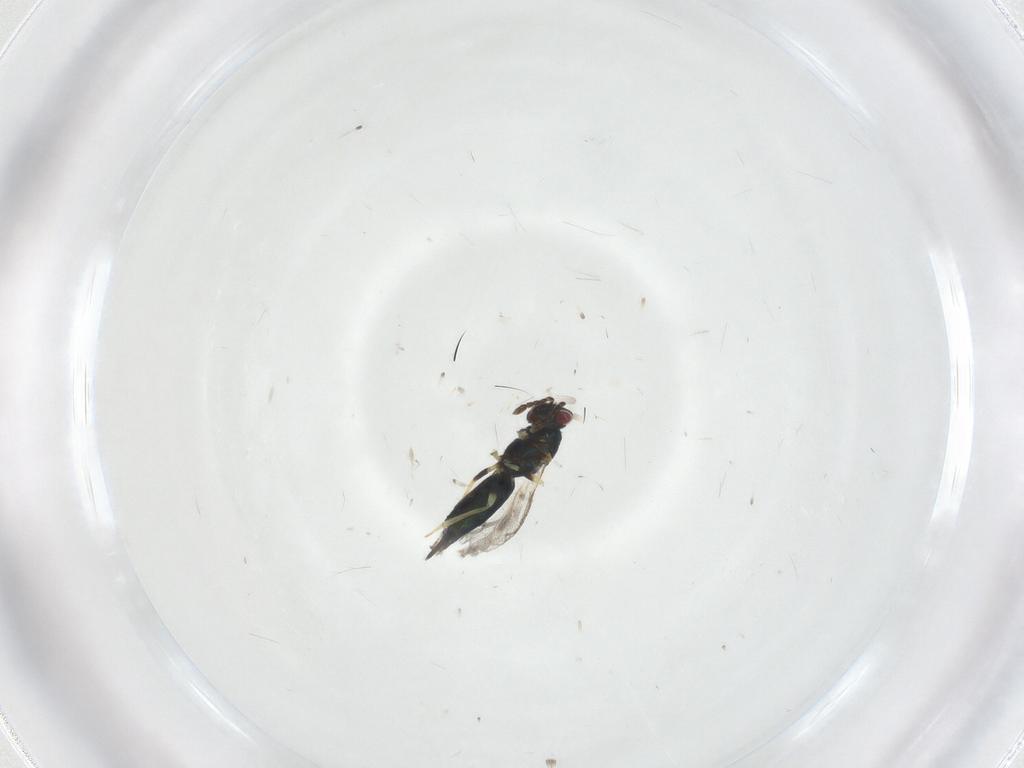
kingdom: Animalia
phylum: Arthropoda
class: Insecta
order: Hymenoptera
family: Eulophidae
